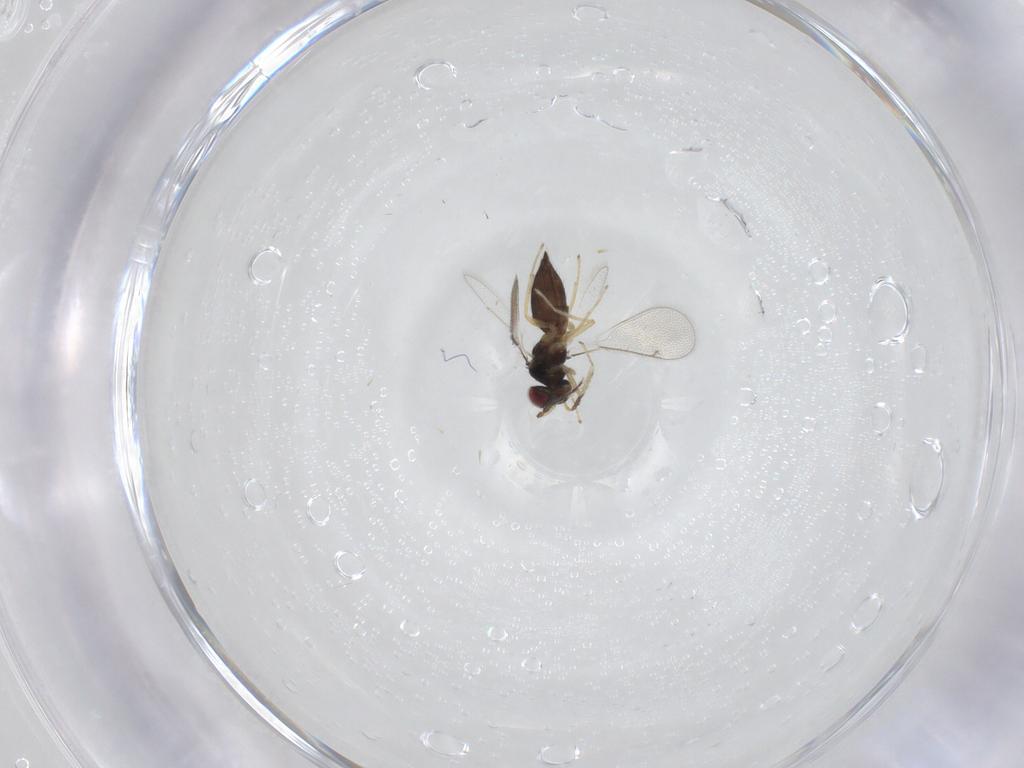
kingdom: Animalia
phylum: Arthropoda
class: Insecta
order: Hymenoptera
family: Eulophidae
